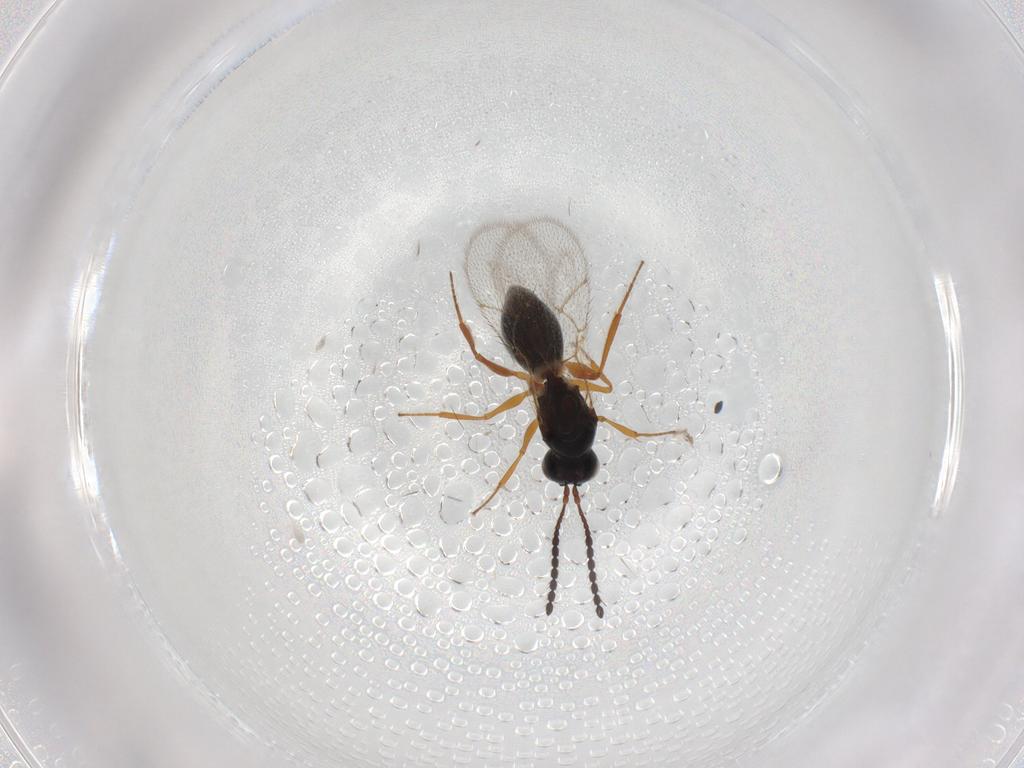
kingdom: Animalia
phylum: Arthropoda
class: Insecta
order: Hymenoptera
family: Figitidae
